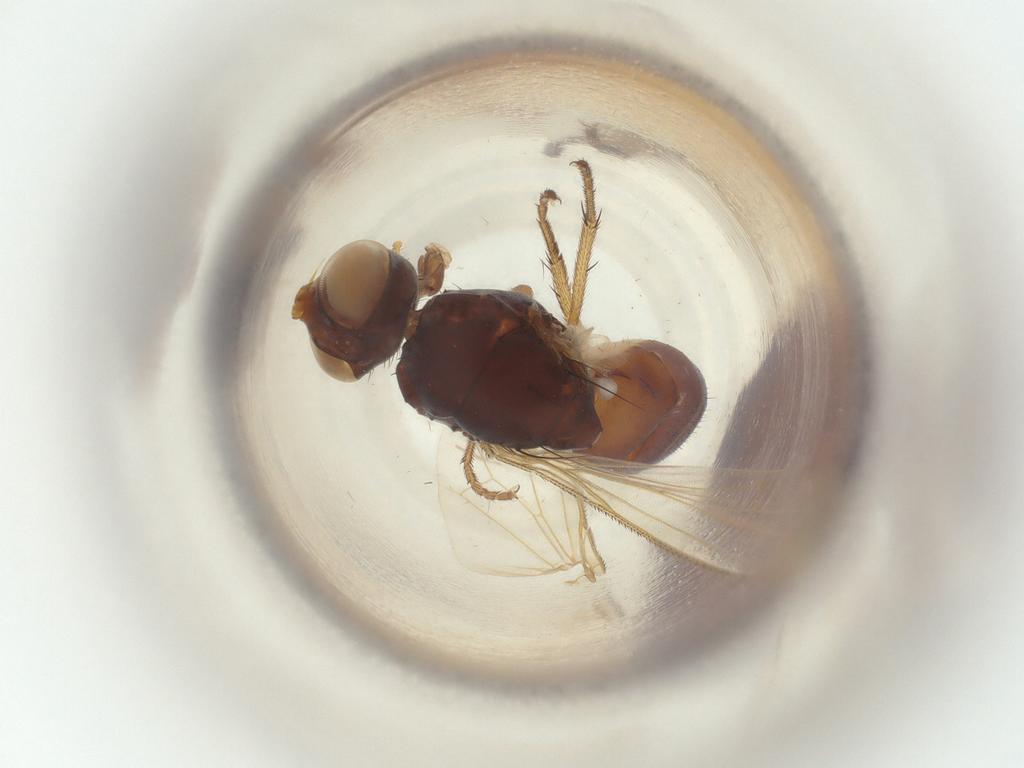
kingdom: Animalia
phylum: Arthropoda
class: Insecta
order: Diptera
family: Muscidae
